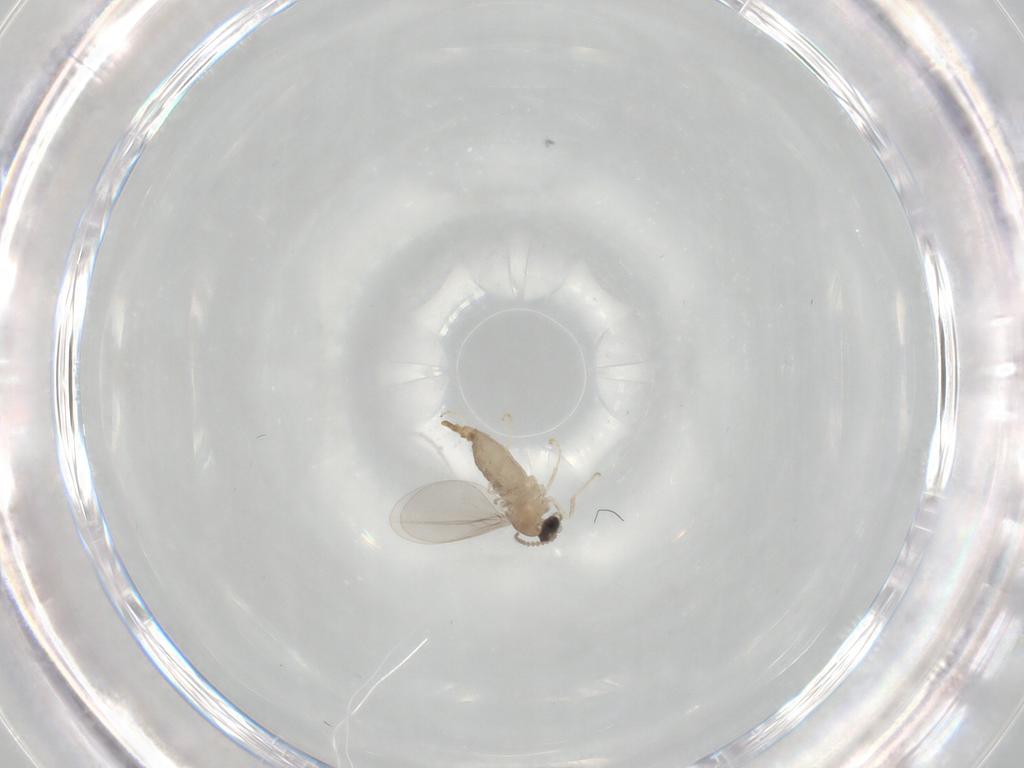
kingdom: Animalia
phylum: Arthropoda
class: Insecta
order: Diptera
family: Cecidomyiidae
